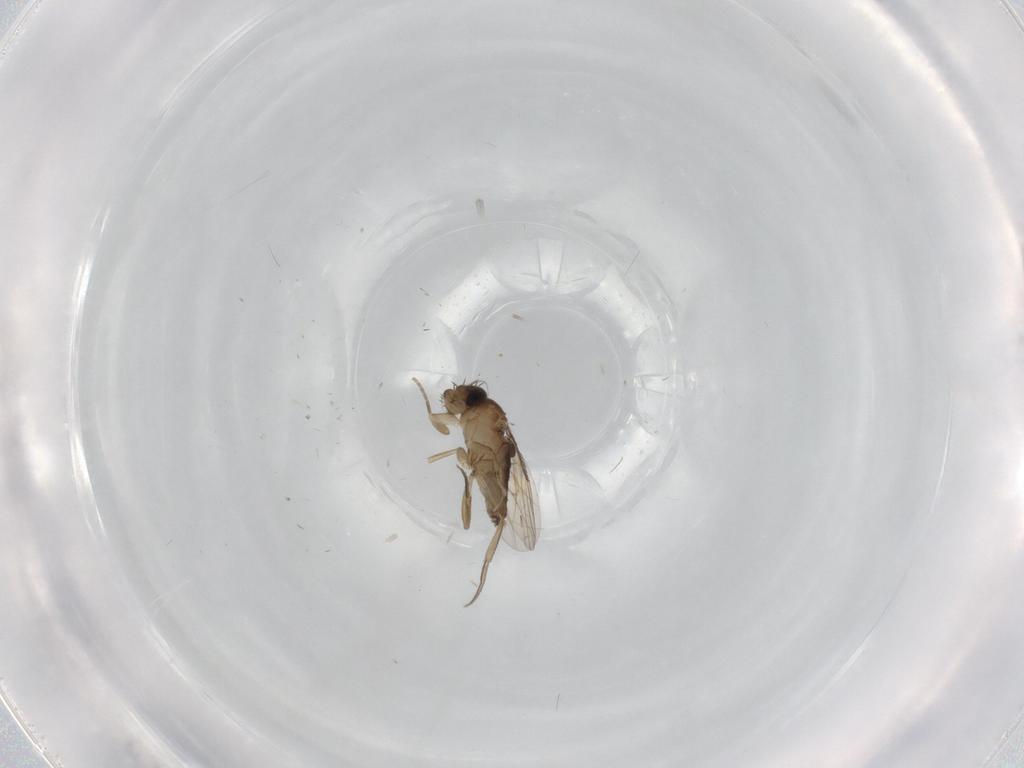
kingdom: Animalia
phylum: Arthropoda
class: Insecta
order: Diptera
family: Phoridae
